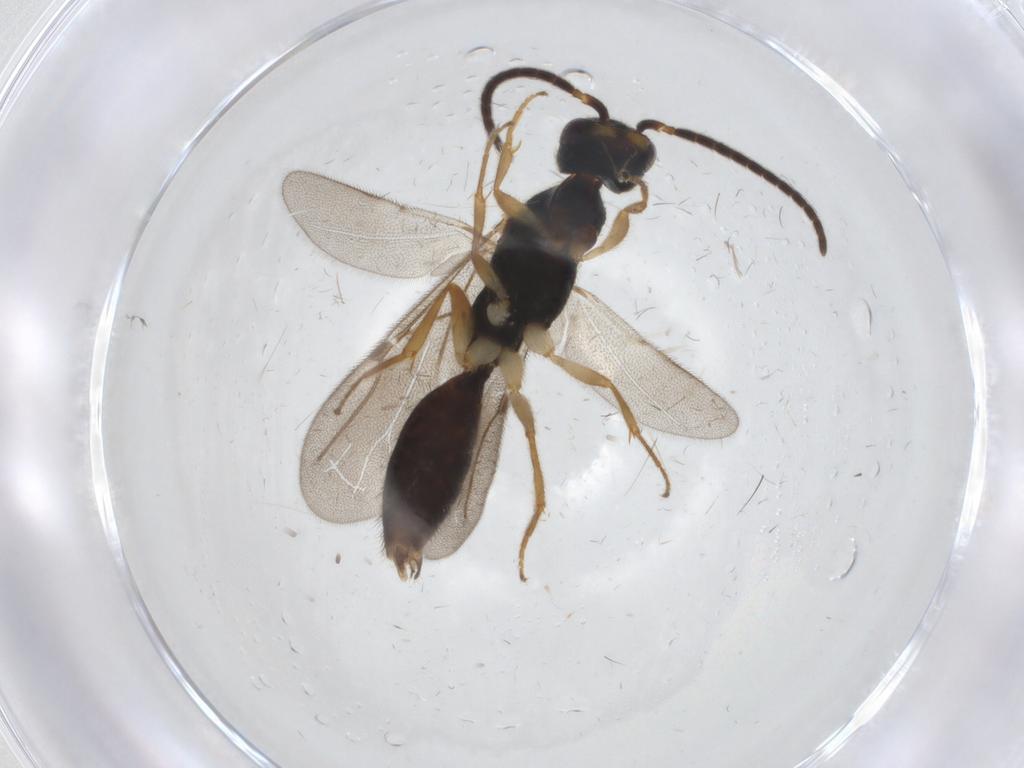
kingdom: Animalia
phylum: Arthropoda
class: Insecta
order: Hymenoptera
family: Bethylidae
